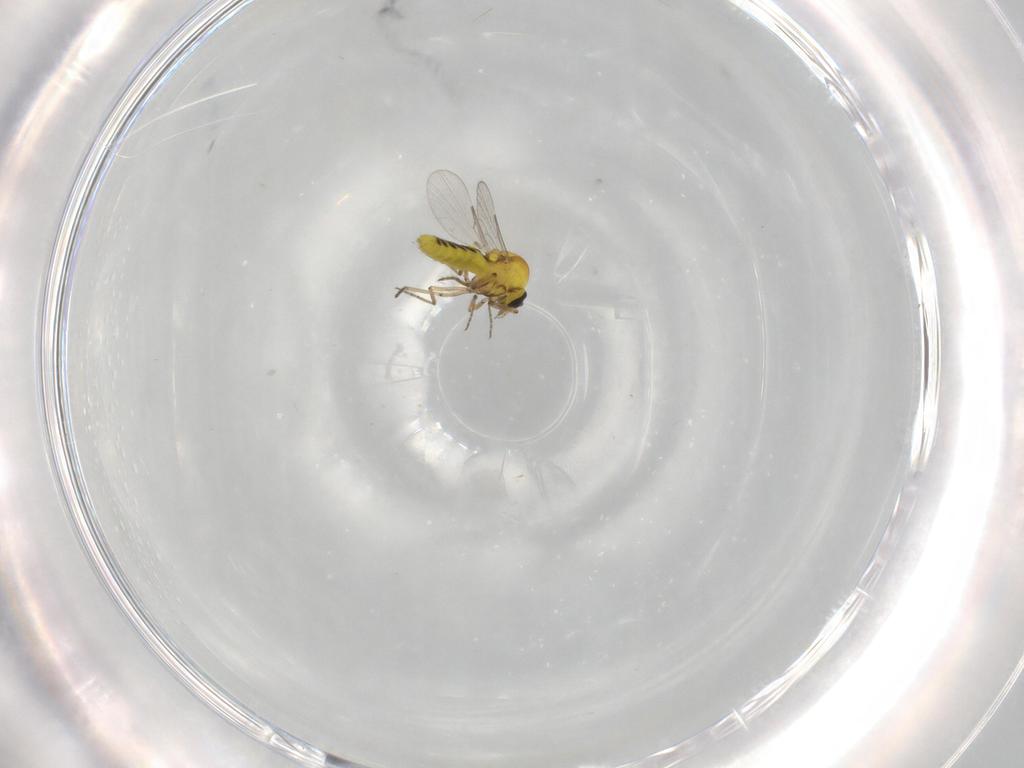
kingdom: Animalia
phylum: Arthropoda
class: Insecta
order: Diptera
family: Ceratopogonidae
